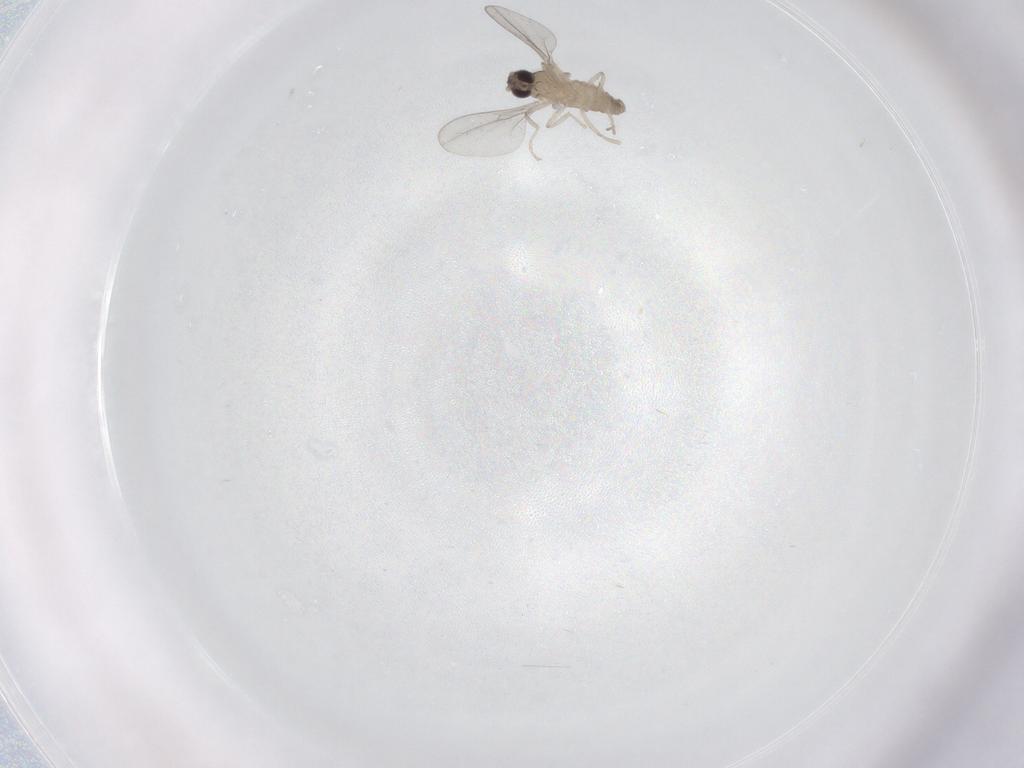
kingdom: Animalia
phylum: Arthropoda
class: Insecta
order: Diptera
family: Cecidomyiidae
